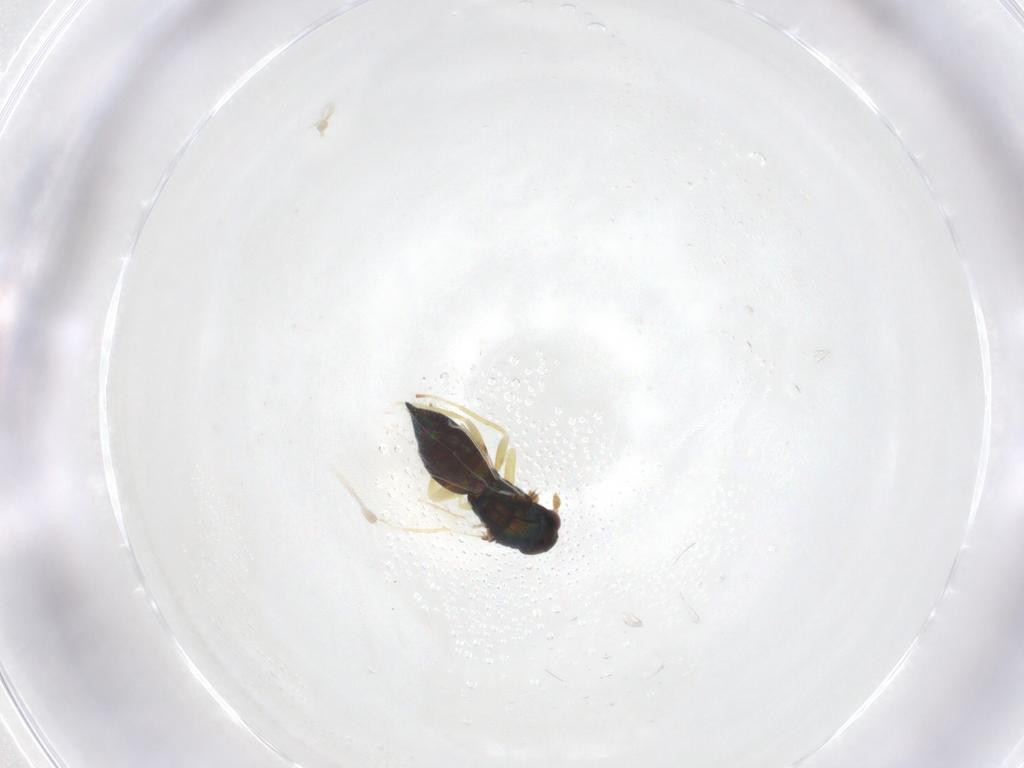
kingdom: Animalia
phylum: Arthropoda
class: Insecta
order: Hymenoptera
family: Eulophidae
